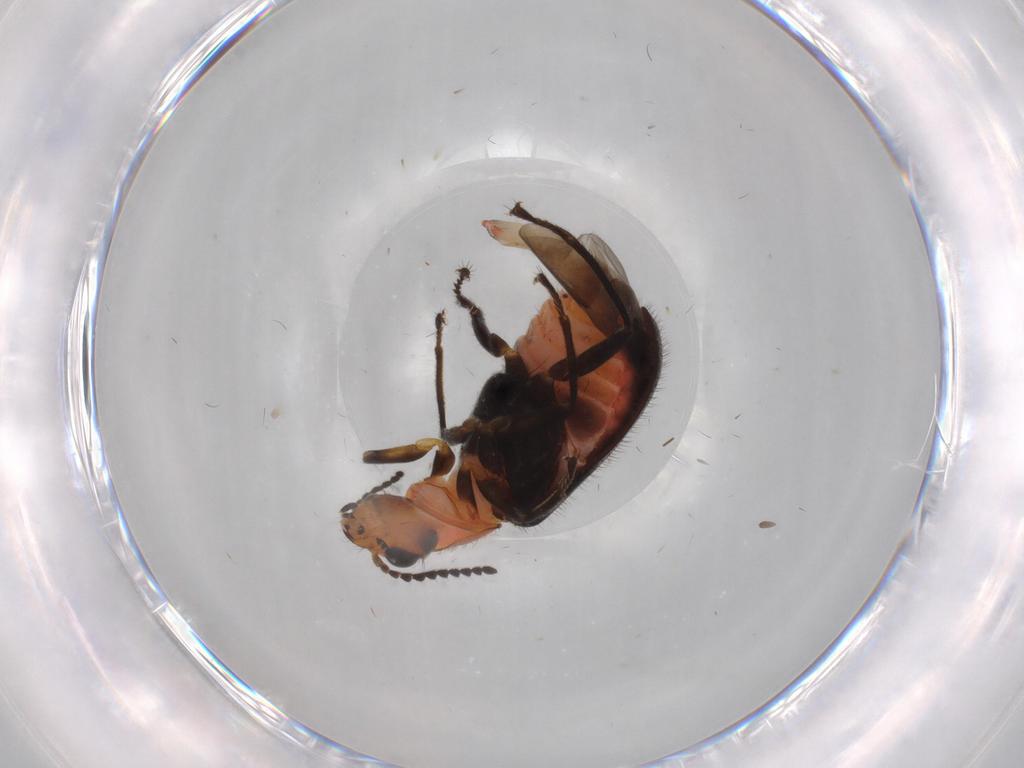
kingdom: Animalia
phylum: Arthropoda
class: Insecta
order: Coleoptera
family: Melyridae
